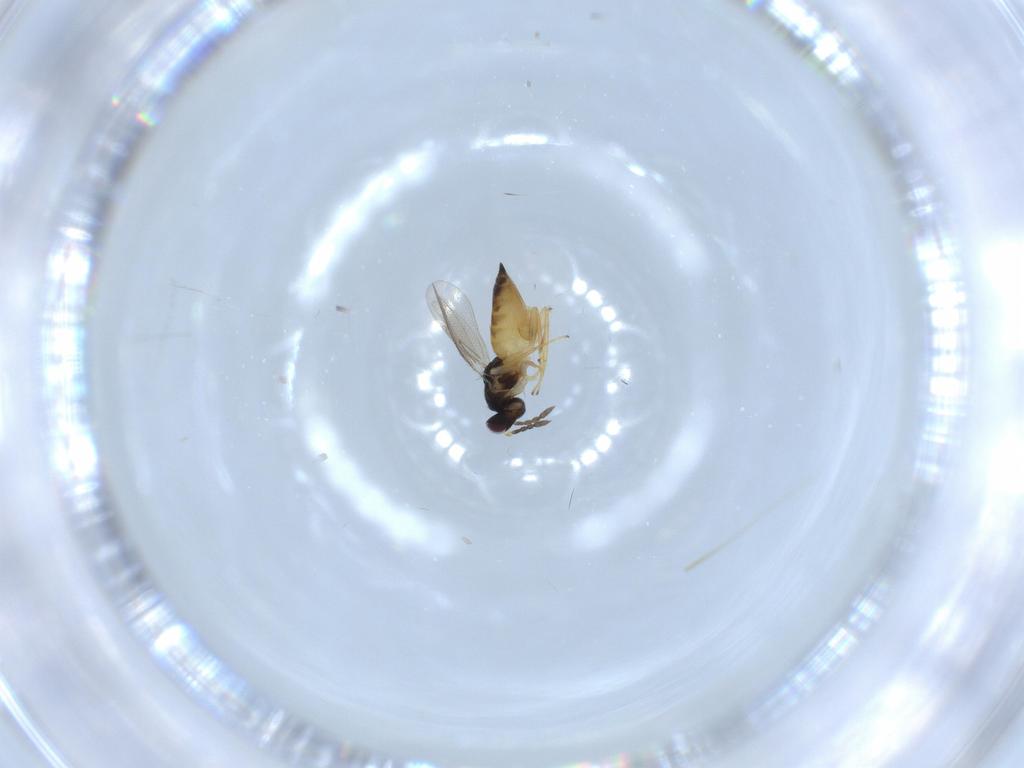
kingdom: Animalia
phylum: Arthropoda
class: Insecta
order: Hymenoptera
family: Eulophidae
